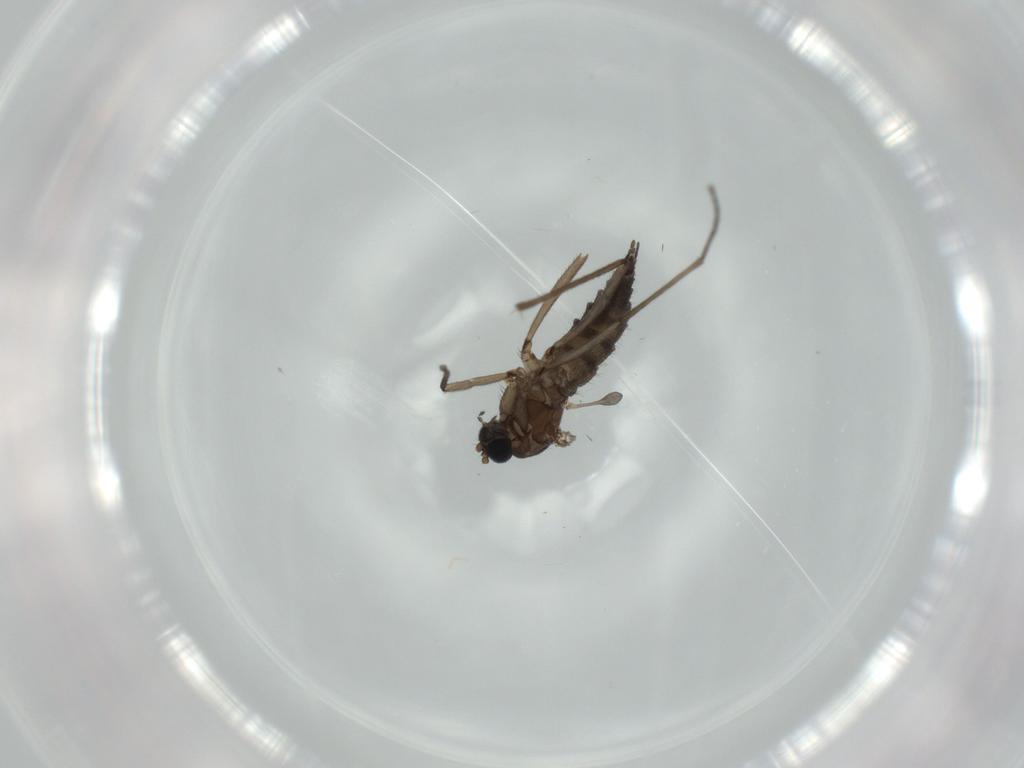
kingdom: Animalia
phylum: Arthropoda
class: Insecta
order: Diptera
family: Sciaridae
